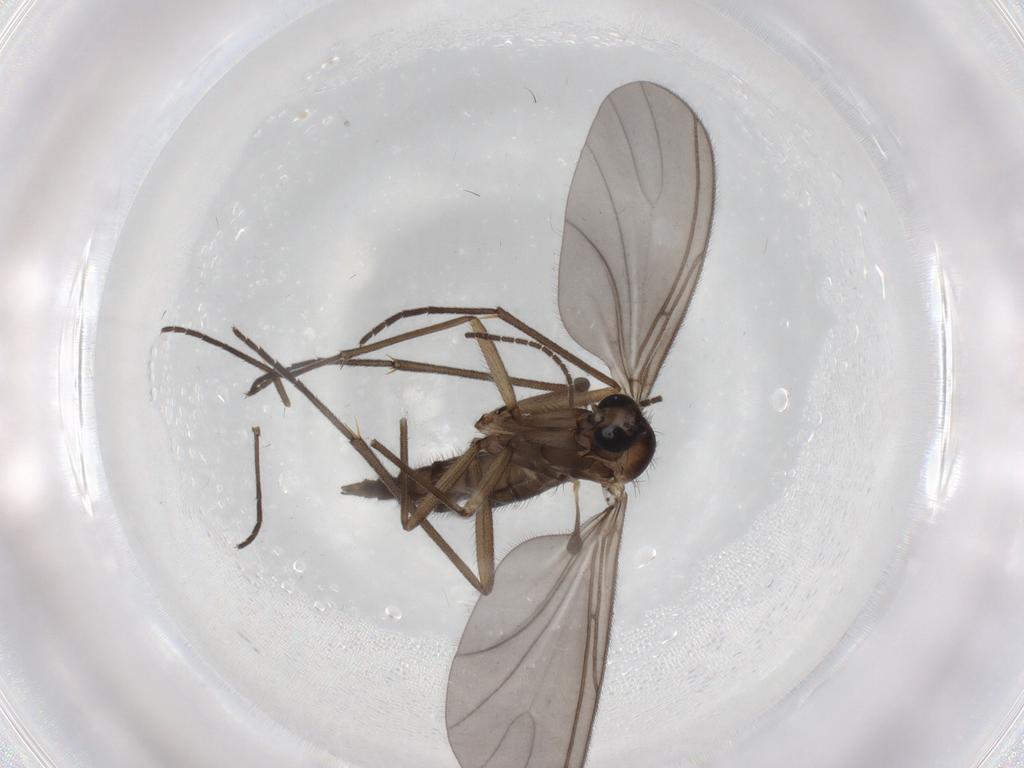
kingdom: Animalia
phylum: Arthropoda
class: Insecta
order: Diptera
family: Sciaridae
